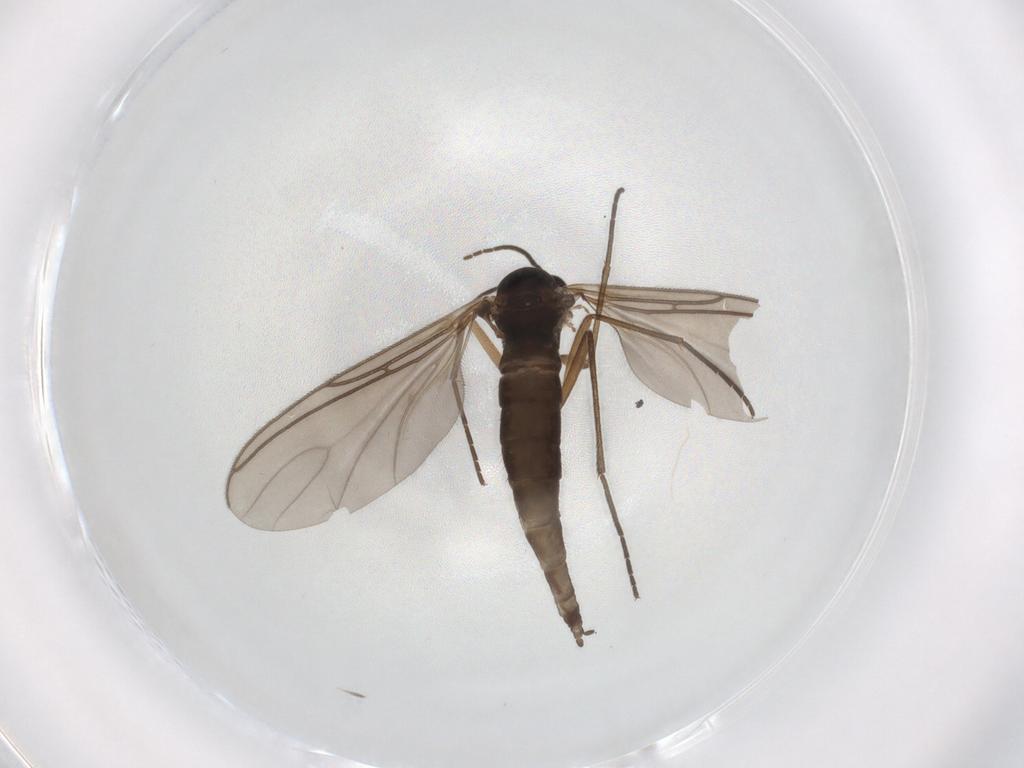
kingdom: Animalia
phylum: Arthropoda
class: Insecta
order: Diptera
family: Sciaridae
